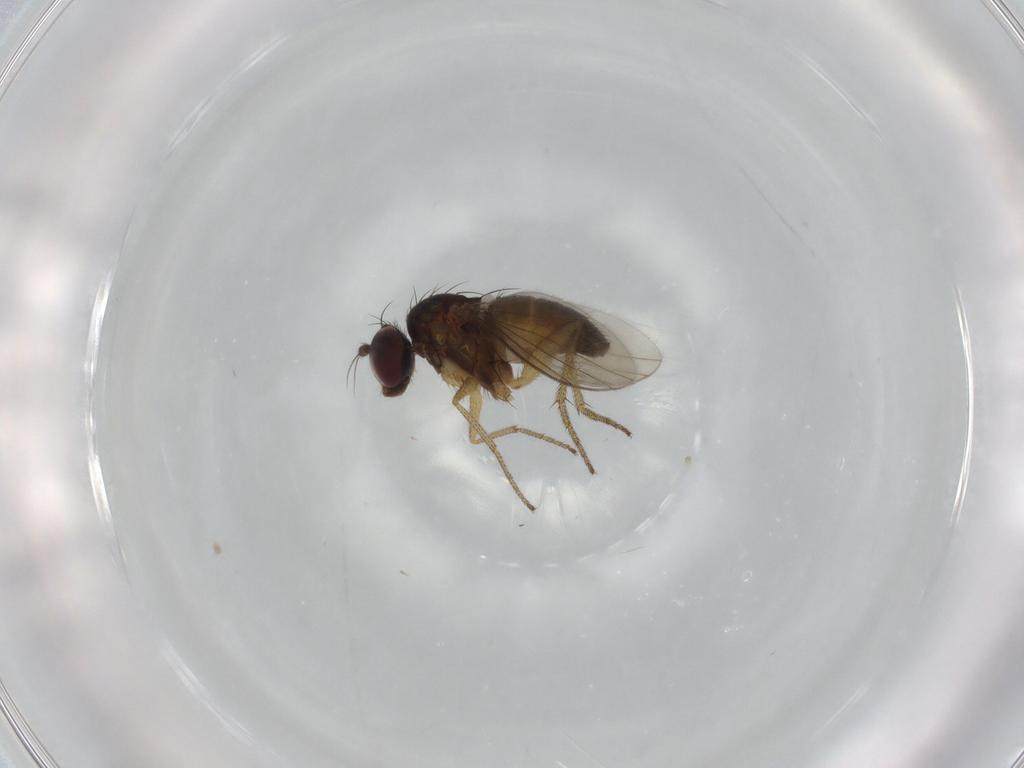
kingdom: Animalia
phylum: Arthropoda
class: Insecta
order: Diptera
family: Dolichopodidae
